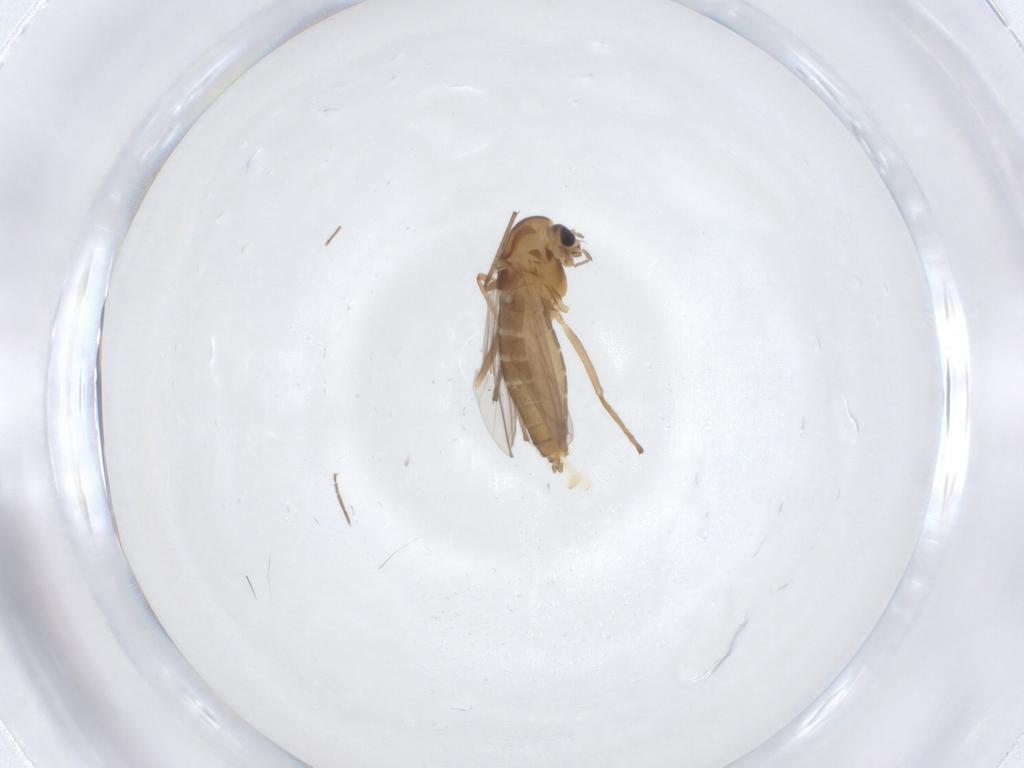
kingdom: Animalia
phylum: Arthropoda
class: Insecta
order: Diptera
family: Chironomidae
